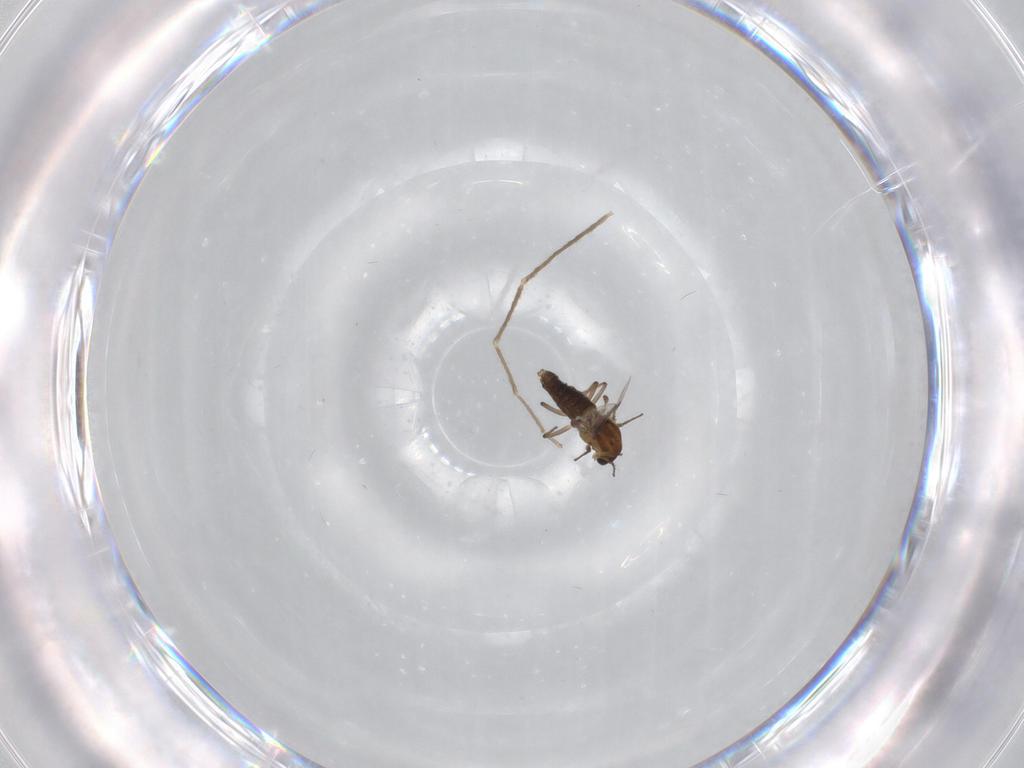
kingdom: Animalia
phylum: Arthropoda
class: Insecta
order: Diptera
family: Chironomidae
